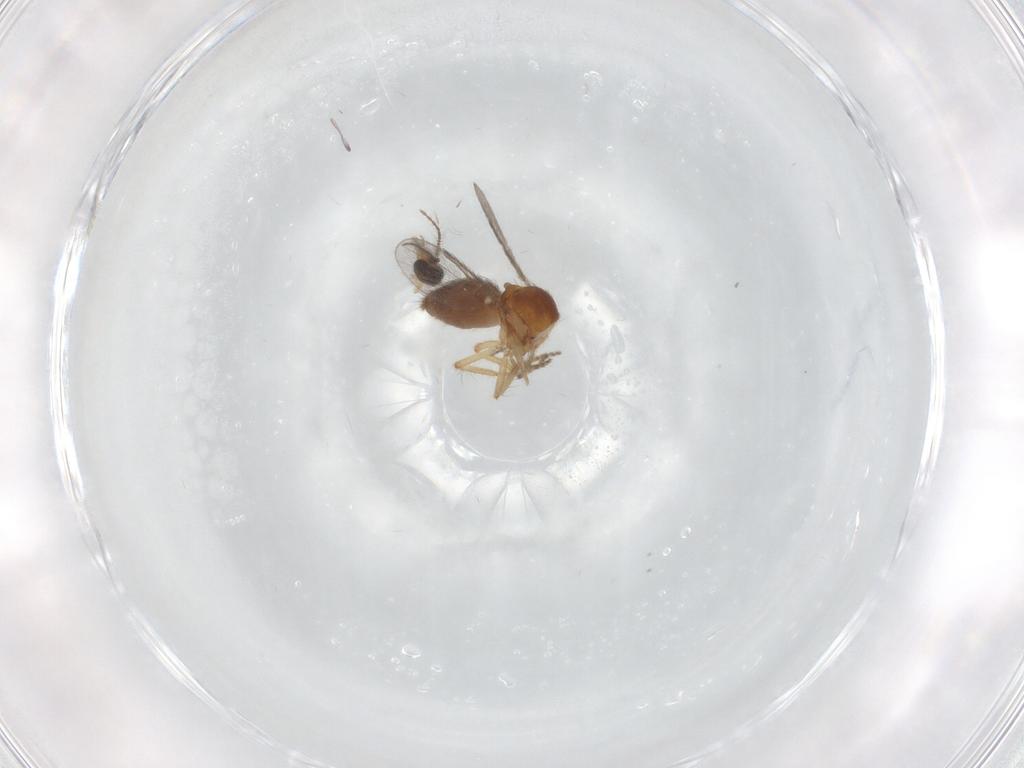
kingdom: Animalia
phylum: Arthropoda
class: Insecta
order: Diptera
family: Ceratopogonidae
